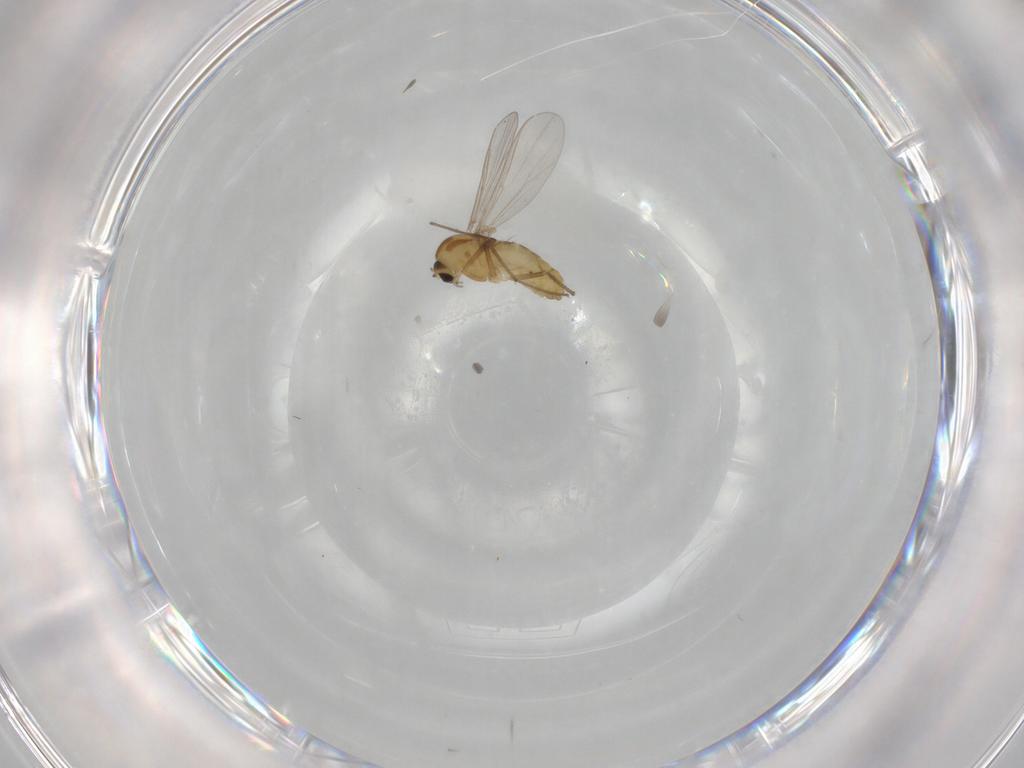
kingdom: Animalia
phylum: Arthropoda
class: Insecta
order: Diptera
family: Chironomidae
